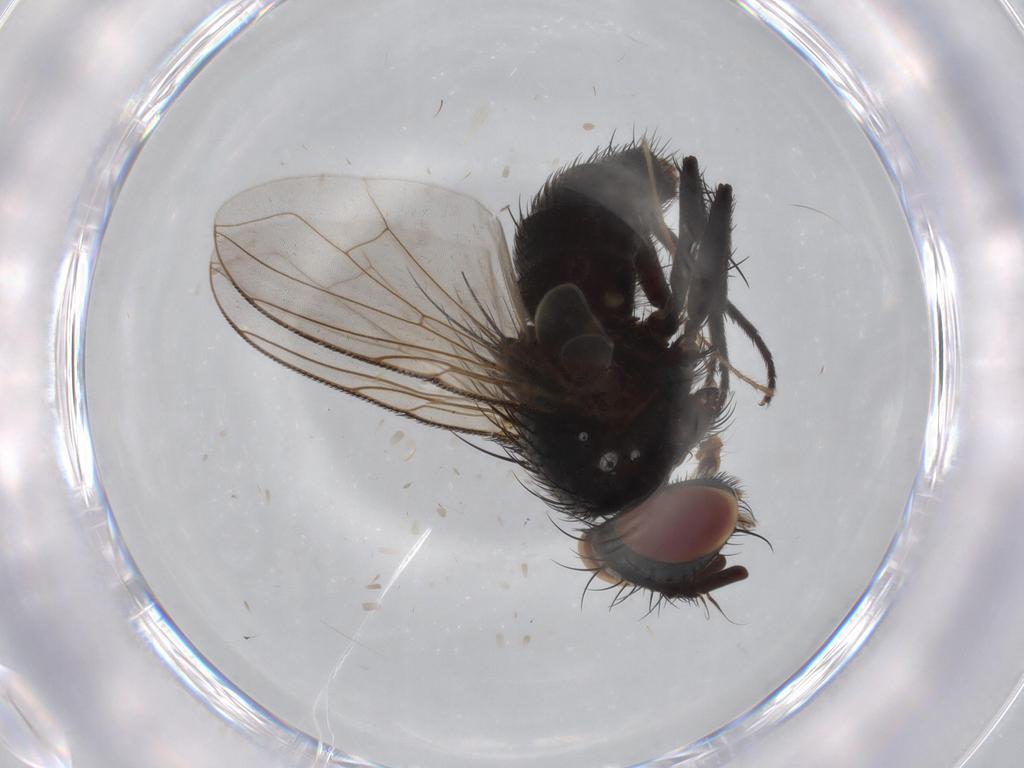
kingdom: Animalia
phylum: Arthropoda
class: Insecta
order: Diptera
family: Tachinidae
